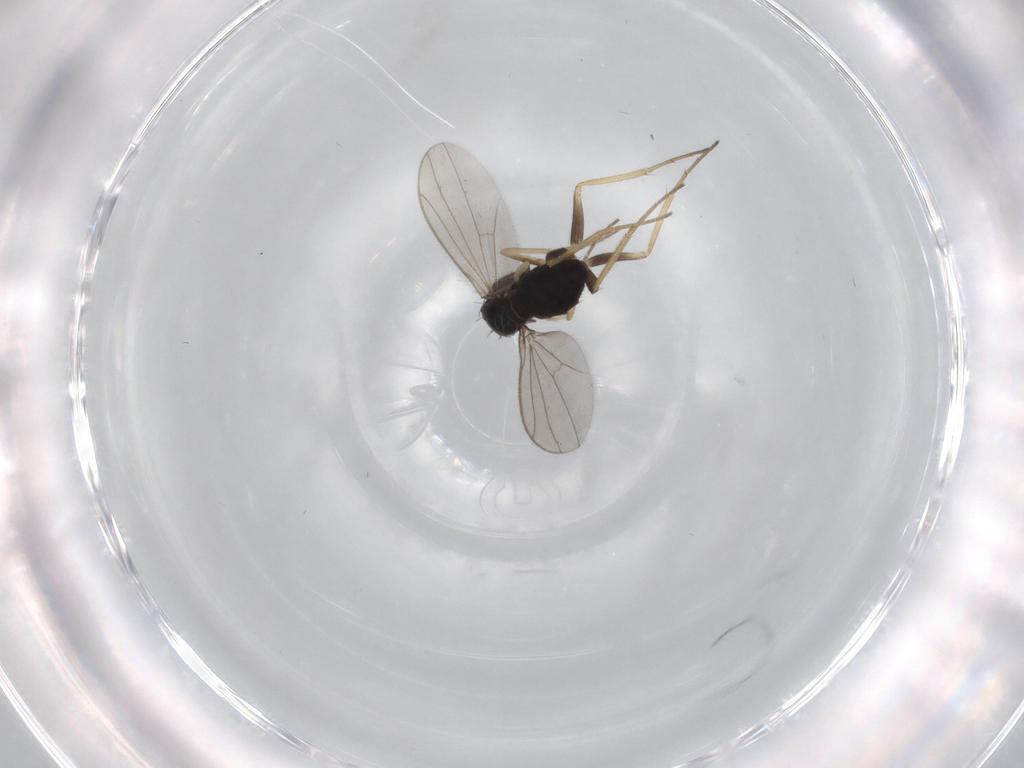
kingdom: Animalia
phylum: Arthropoda
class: Insecta
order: Diptera
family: Dolichopodidae
